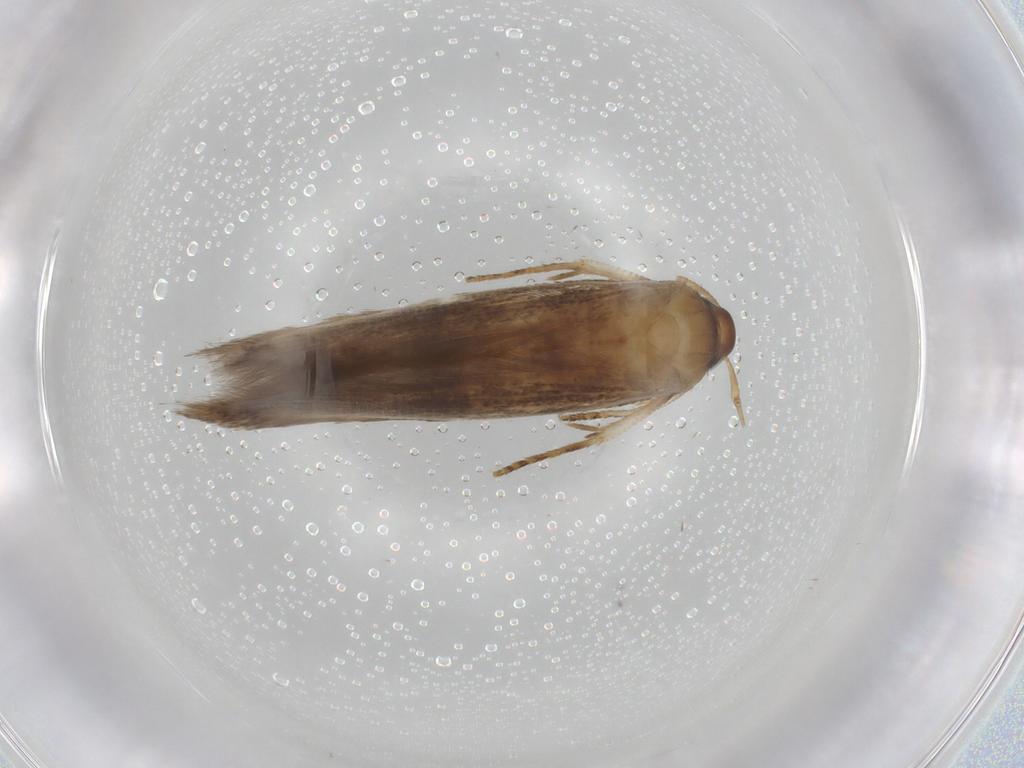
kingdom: Animalia
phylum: Arthropoda
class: Insecta
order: Lepidoptera
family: Cosmopterigidae
